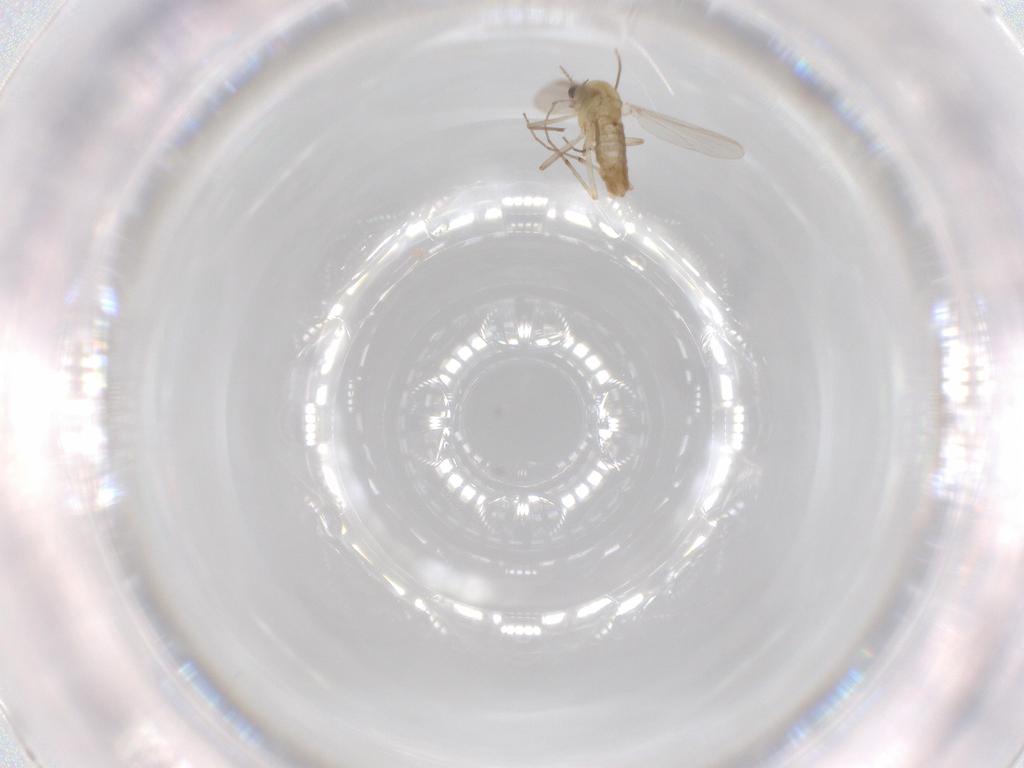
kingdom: Animalia
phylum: Arthropoda
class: Insecta
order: Diptera
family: Chironomidae
